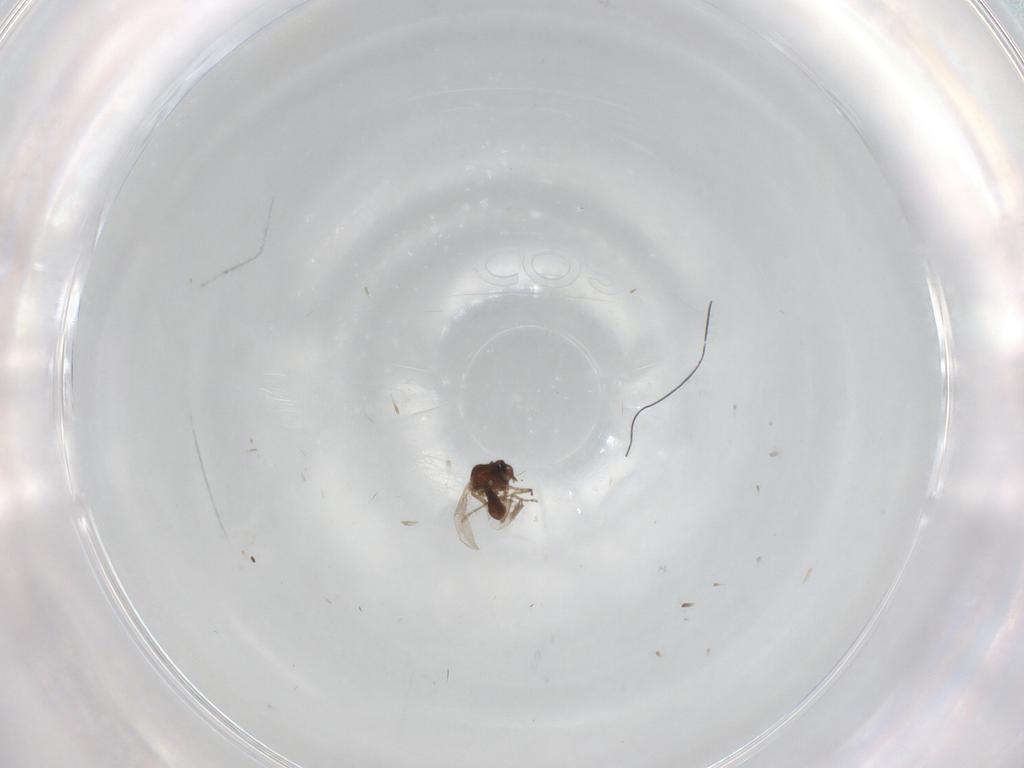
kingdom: Animalia
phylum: Arthropoda
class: Insecta
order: Diptera
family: Ceratopogonidae
